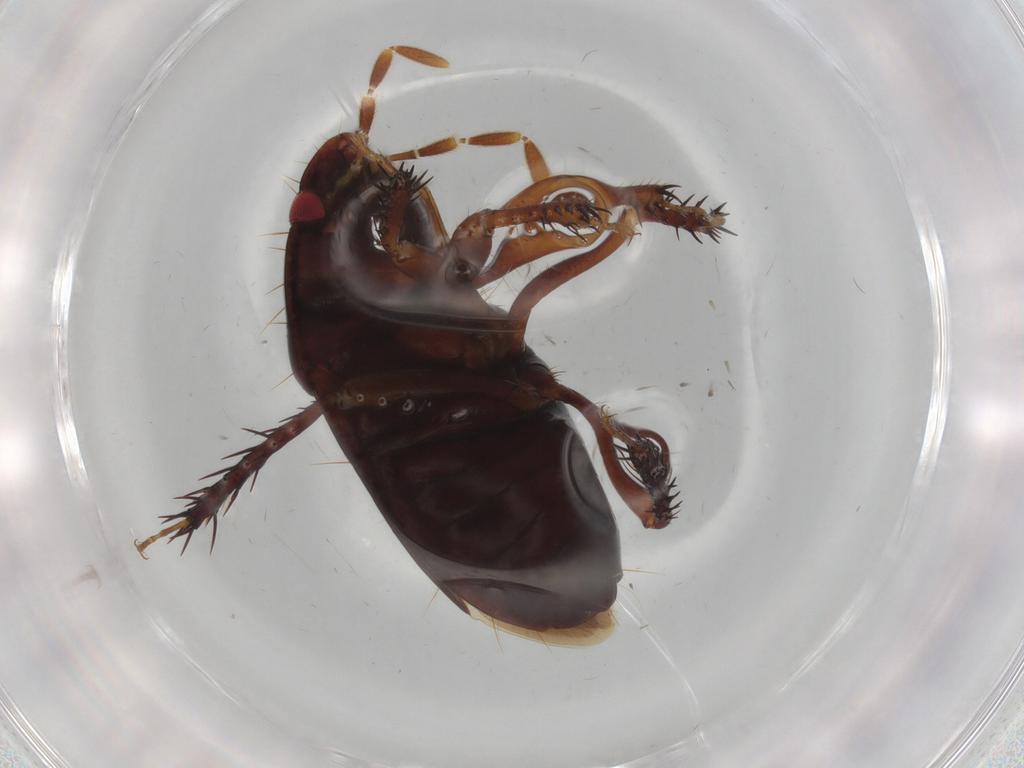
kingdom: Animalia
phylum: Arthropoda
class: Insecta
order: Hemiptera
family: Cydnidae
